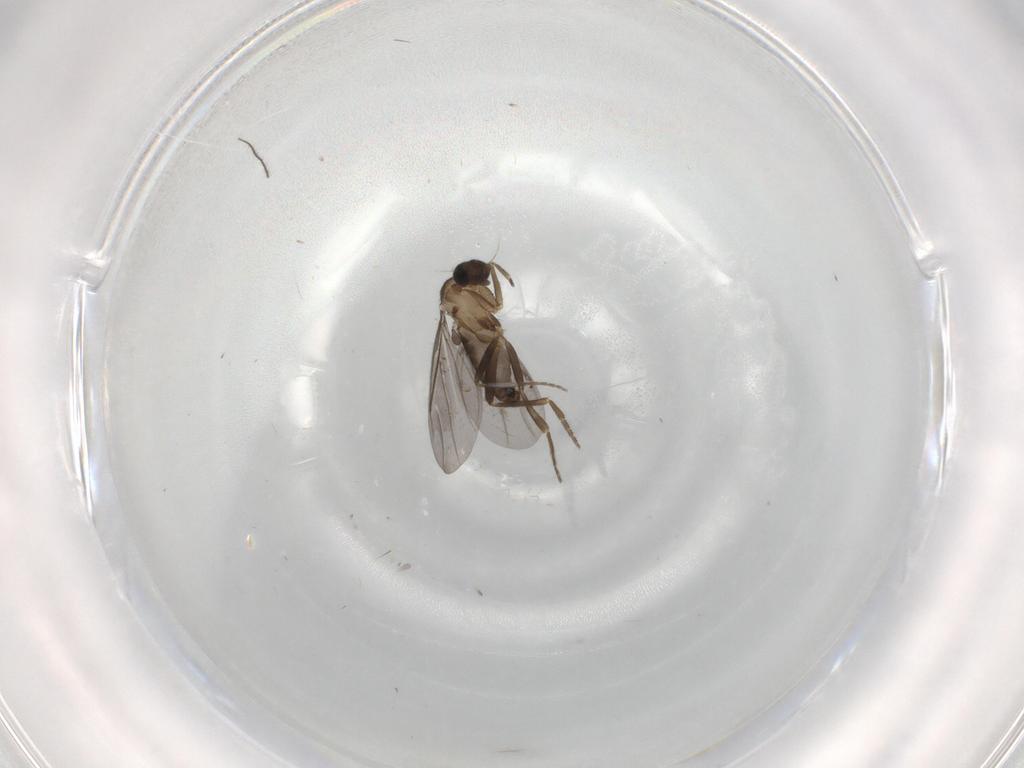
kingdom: Animalia
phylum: Arthropoda
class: Insecta
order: Diptera
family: Phoridae
